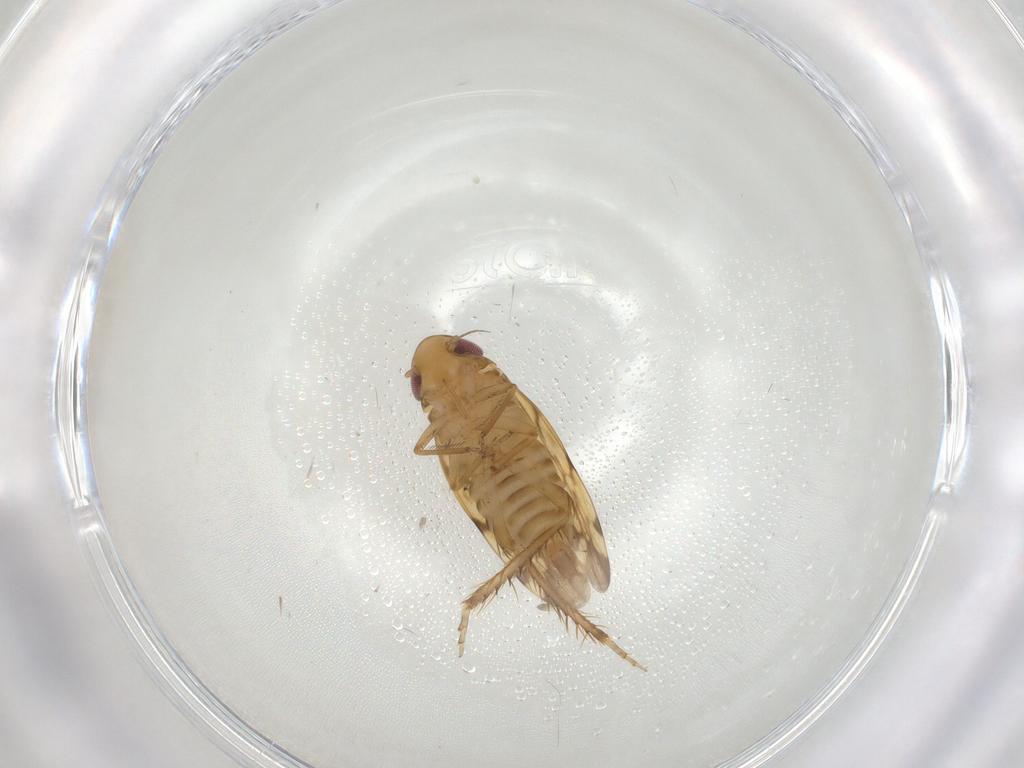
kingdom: Animalia
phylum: Arthropoda
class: Insecta
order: Hemiptera
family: Cicadellidae
